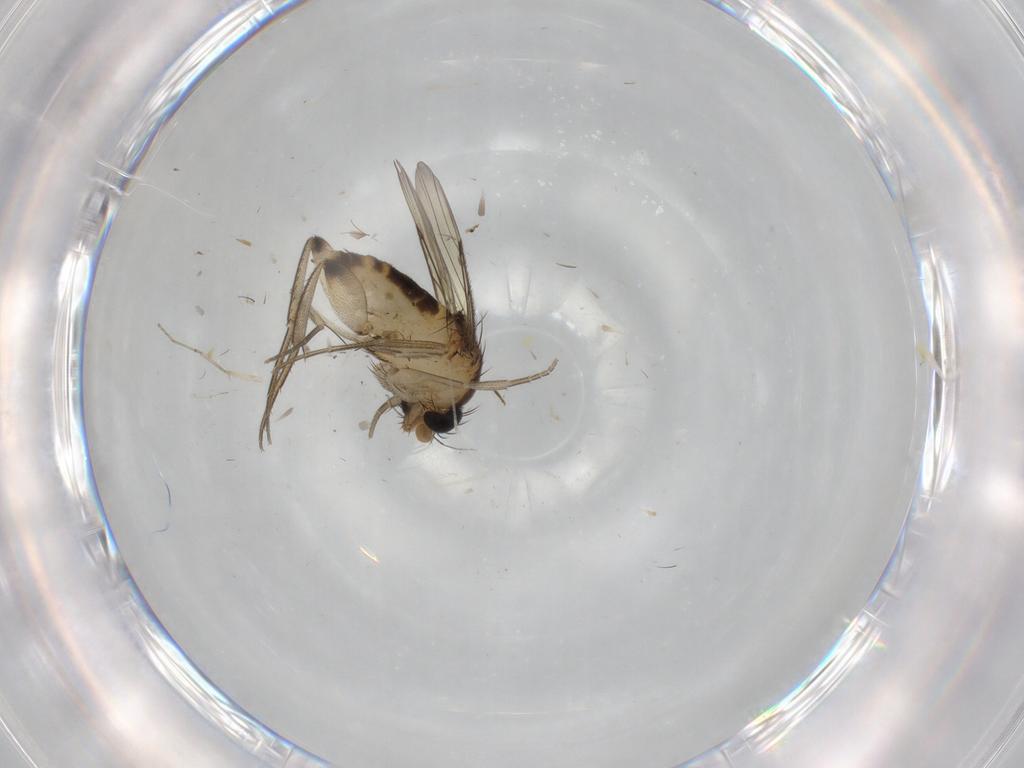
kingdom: Animalia
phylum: Arthropoda
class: Insecta
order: Diptera
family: Phoridae
